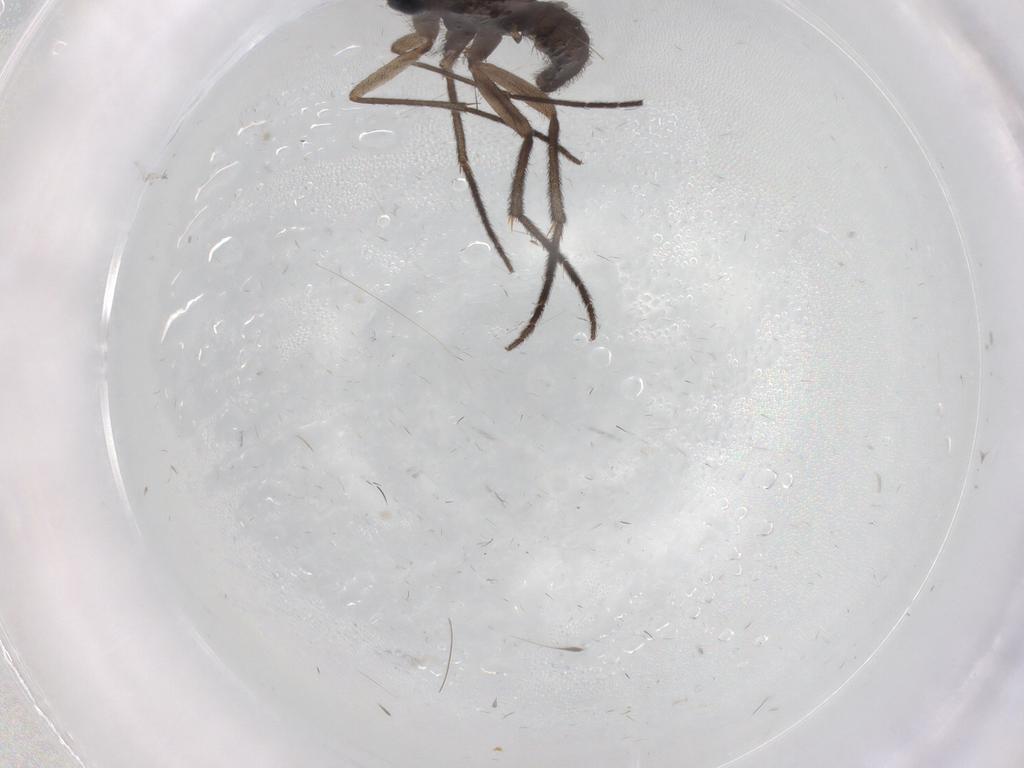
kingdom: Animalia
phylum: Arthropoda
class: Insecta
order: Diptera
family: Sciaridae
